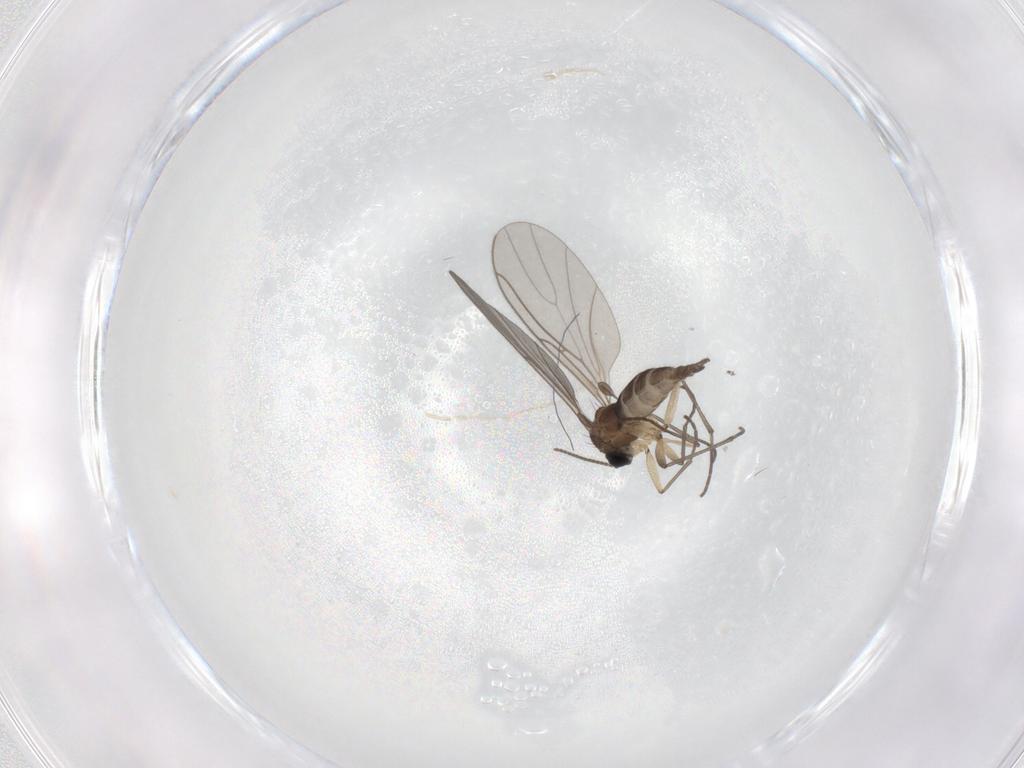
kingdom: Animalia
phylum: Arthropoda
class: Insecta
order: Diptera
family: Sciaridae
